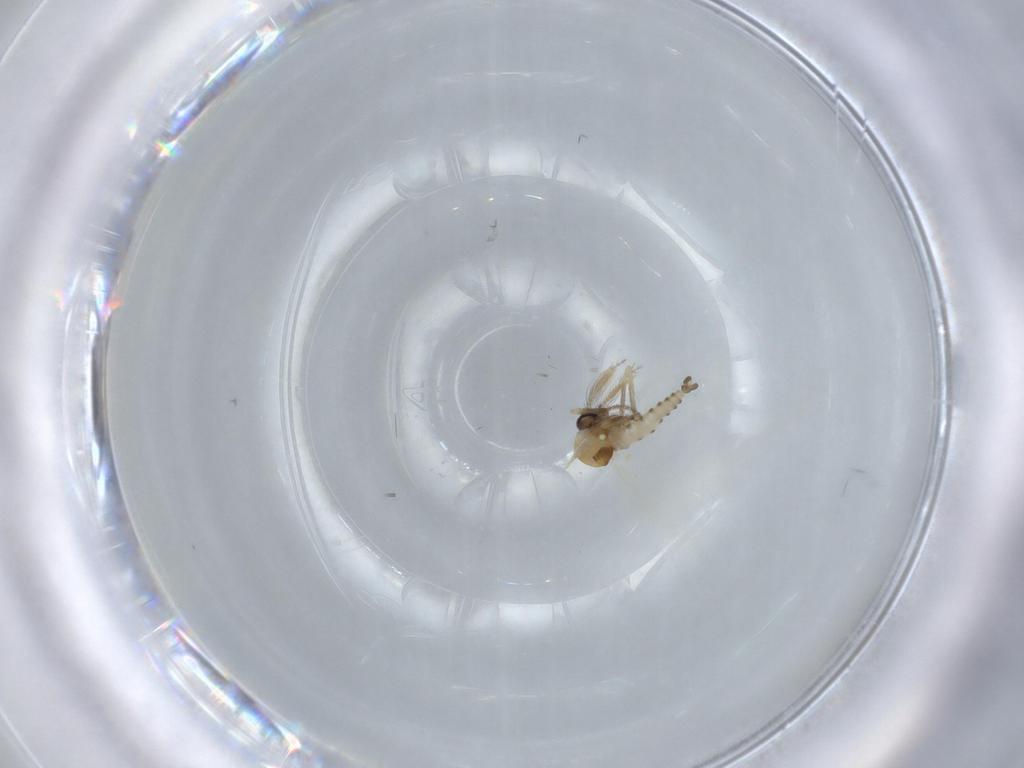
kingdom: Animalia
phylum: Arthropoda
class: Insecta
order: Diptera
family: Ceratopogonidae
